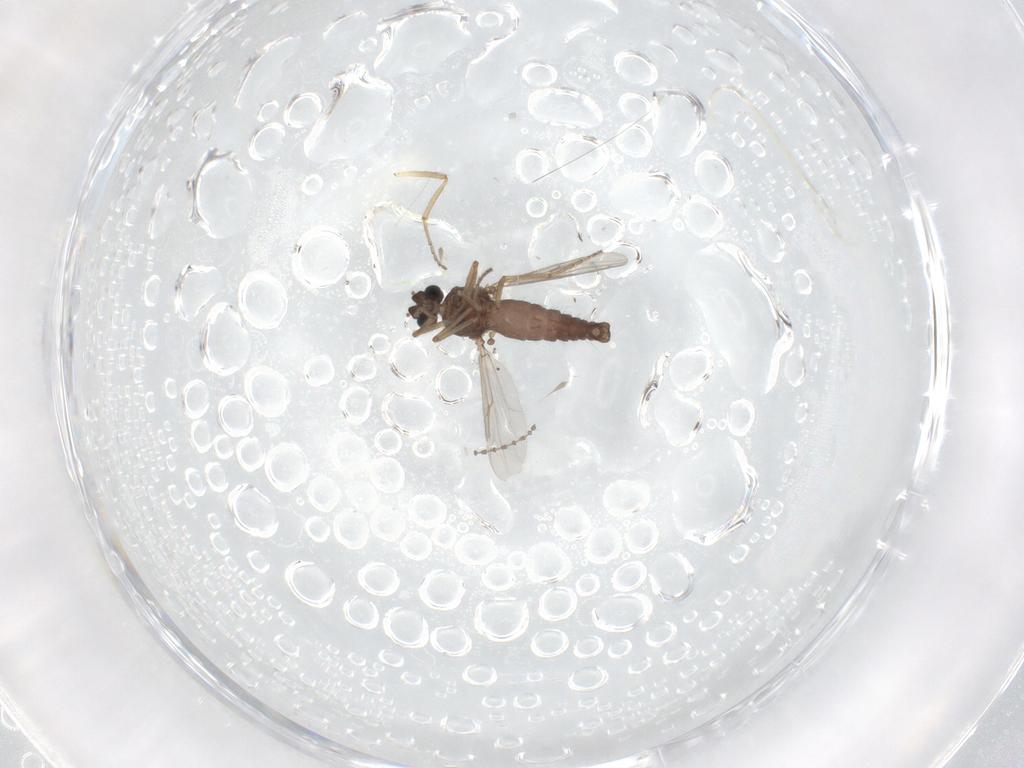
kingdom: Animalia
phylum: Arthropoda
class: Insecta
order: Diptera
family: Ceratopogonidae
